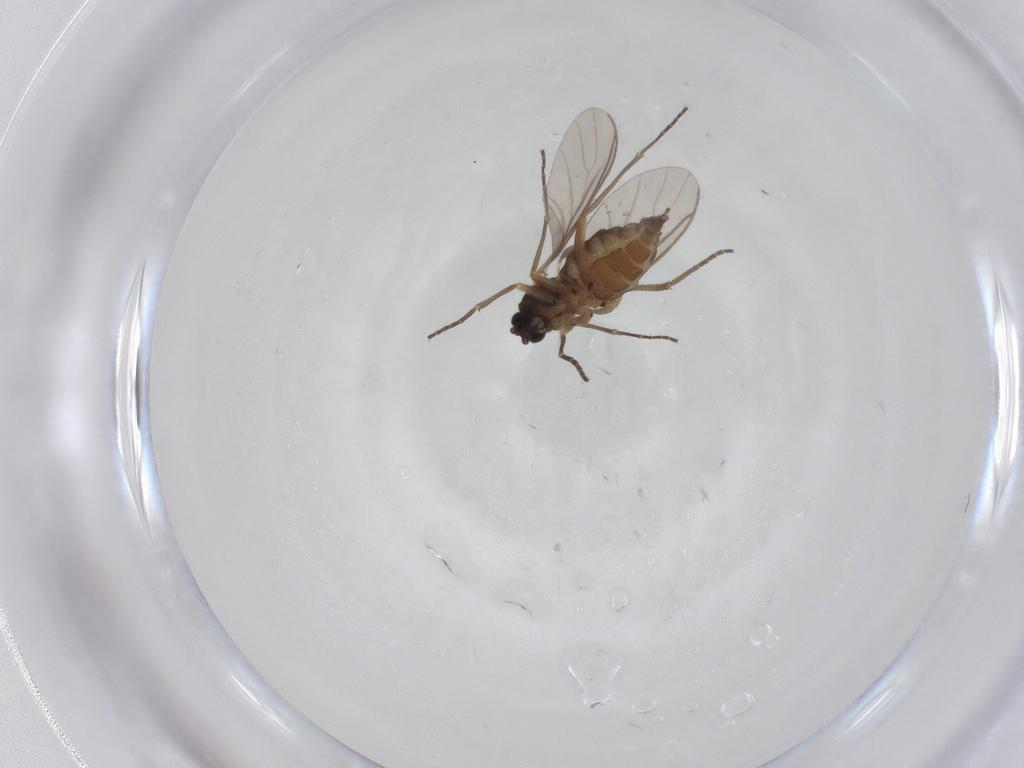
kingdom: Animalia
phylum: Arthropoda
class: Insecta
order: Diptera
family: Sciaridae
